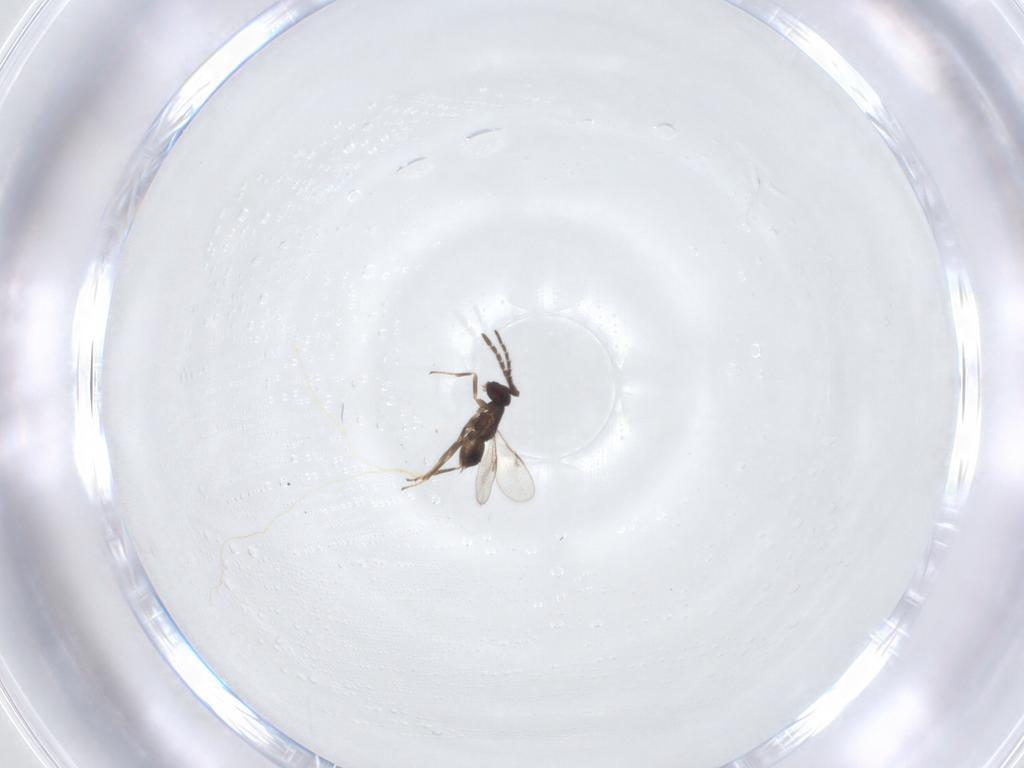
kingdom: Animalia
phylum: Arthropoda
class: Insecta
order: Hymenoptera
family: Encyrtidae
